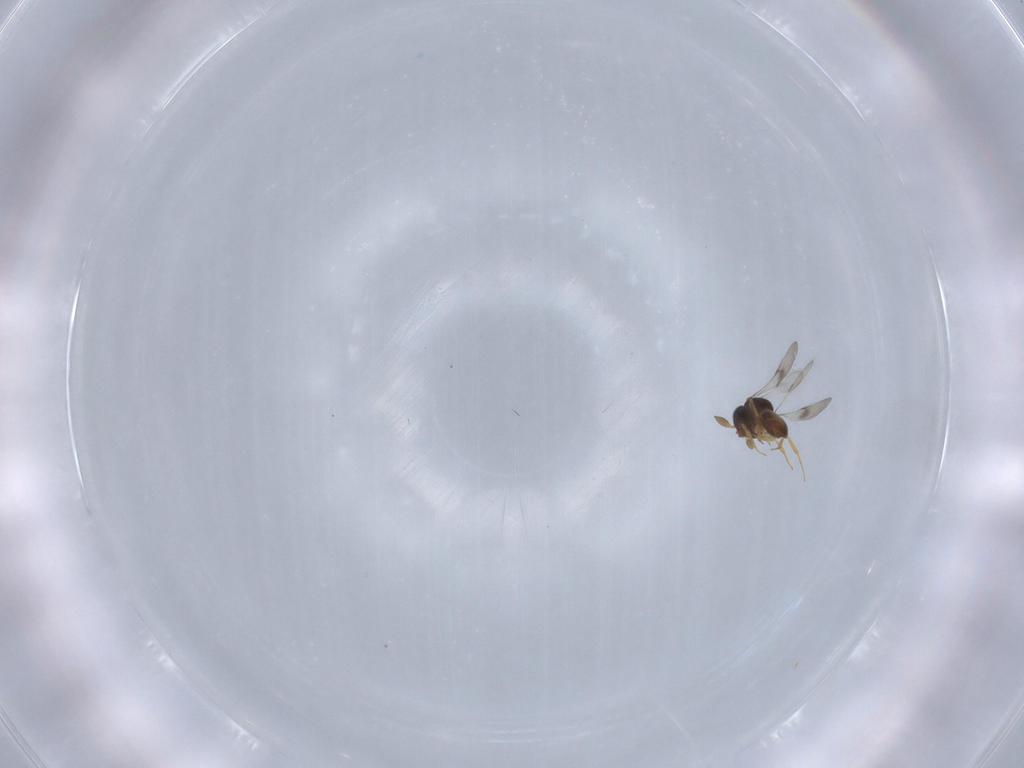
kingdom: Animalia
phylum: Arthropoda
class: Insecta
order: Hymenoptera
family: Scelionidae
